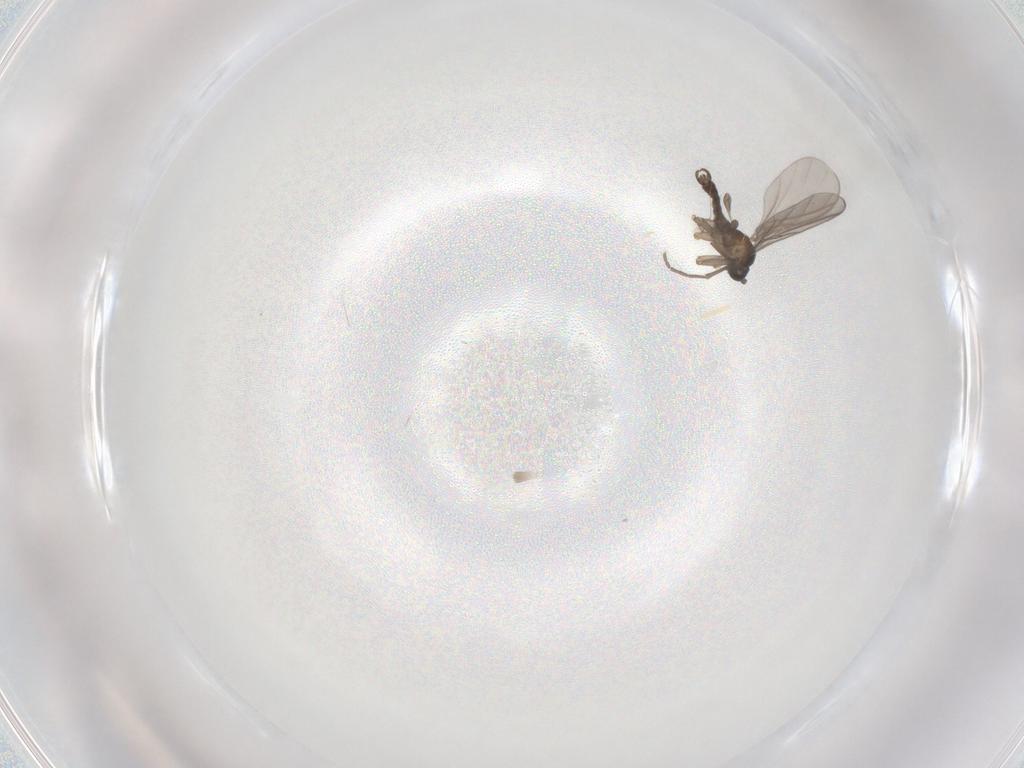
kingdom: Animalia
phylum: Arthropoda
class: Insecta
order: Diptera
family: Sciaridae
